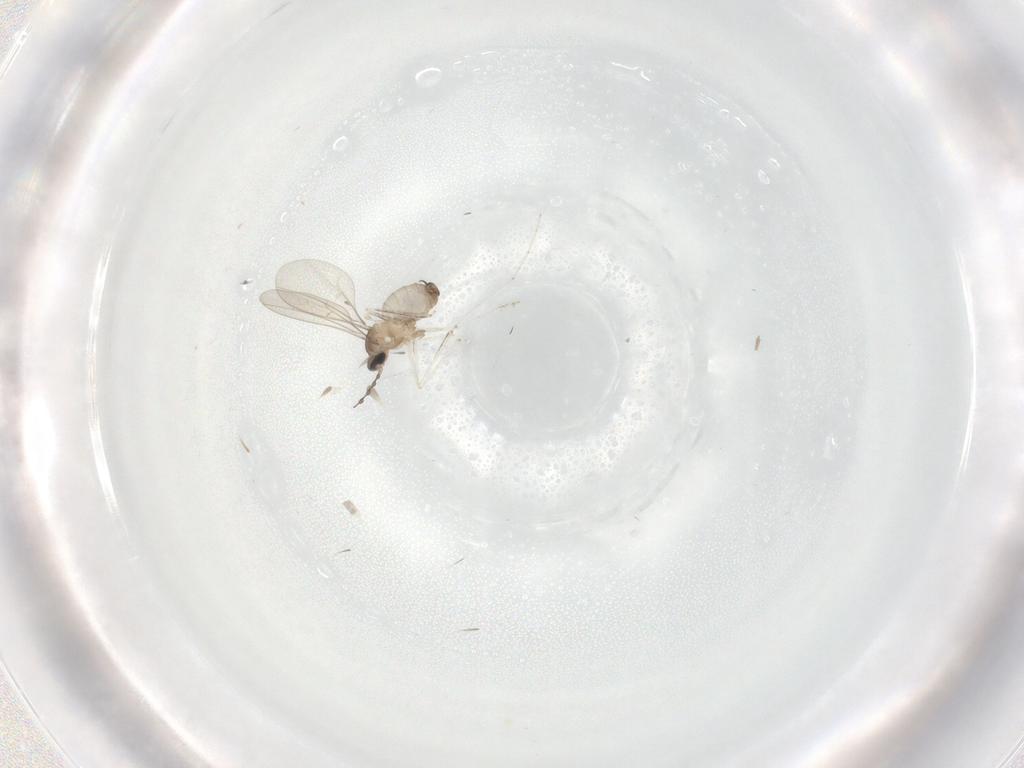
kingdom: Animalia
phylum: Arthropoda
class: Insecta
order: Diptera
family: Cecidomyiidae
